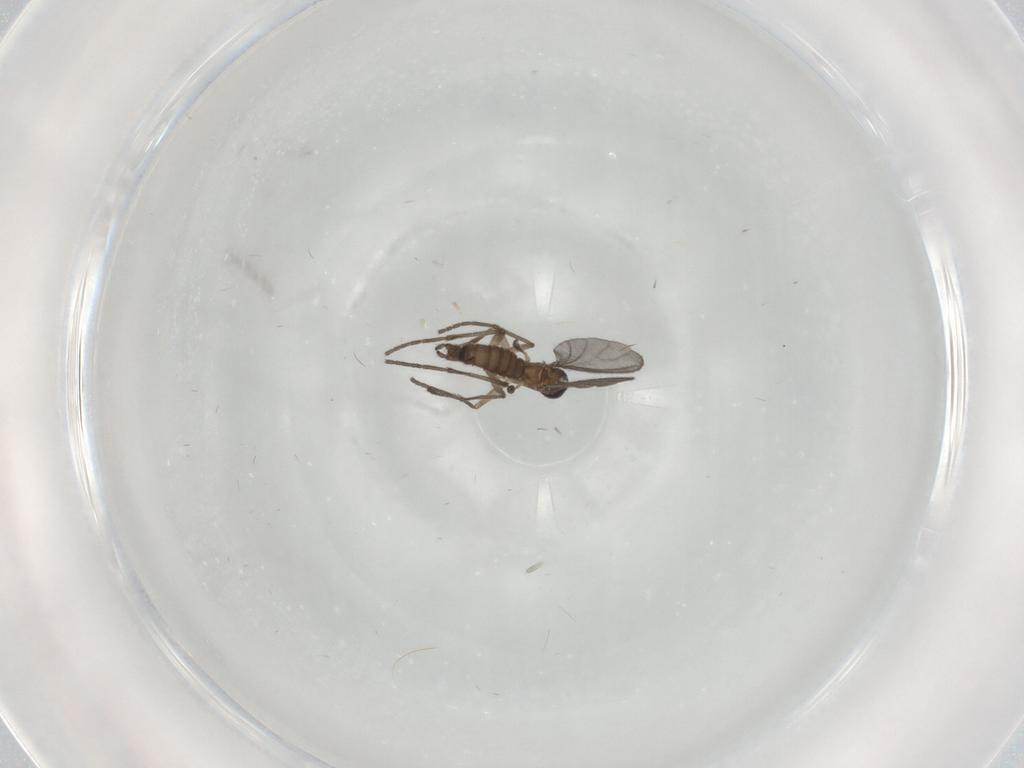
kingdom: Animalia
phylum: Arthropoda
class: Insecta
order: Diptera
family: Sciaridae
